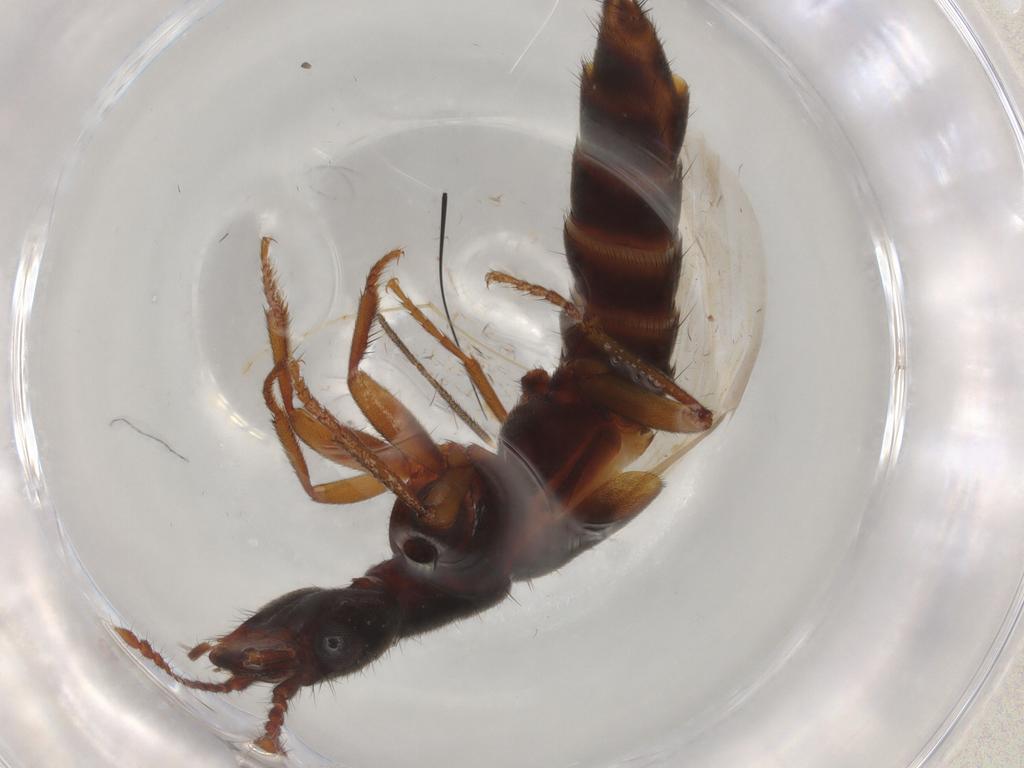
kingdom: Animalia
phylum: Arthropoda
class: Insecta
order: Coleoptera
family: Staphylinidae
